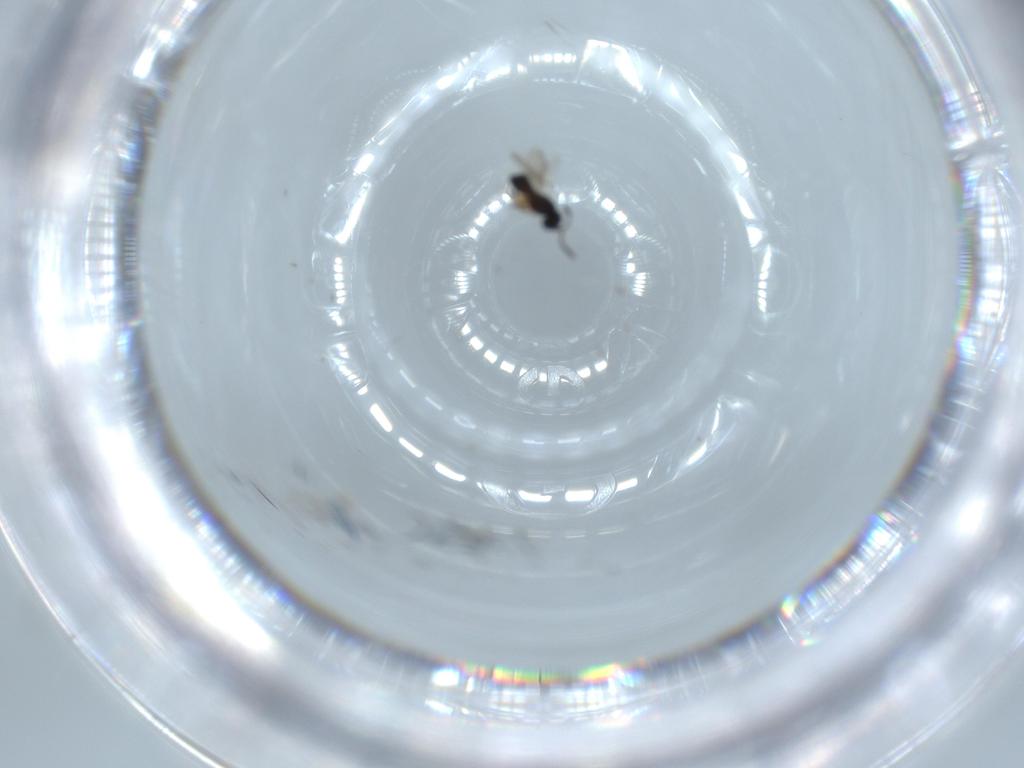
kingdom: Animalia
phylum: Arthropoda
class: Insecta
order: Hymenoptera
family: Scelionidae
